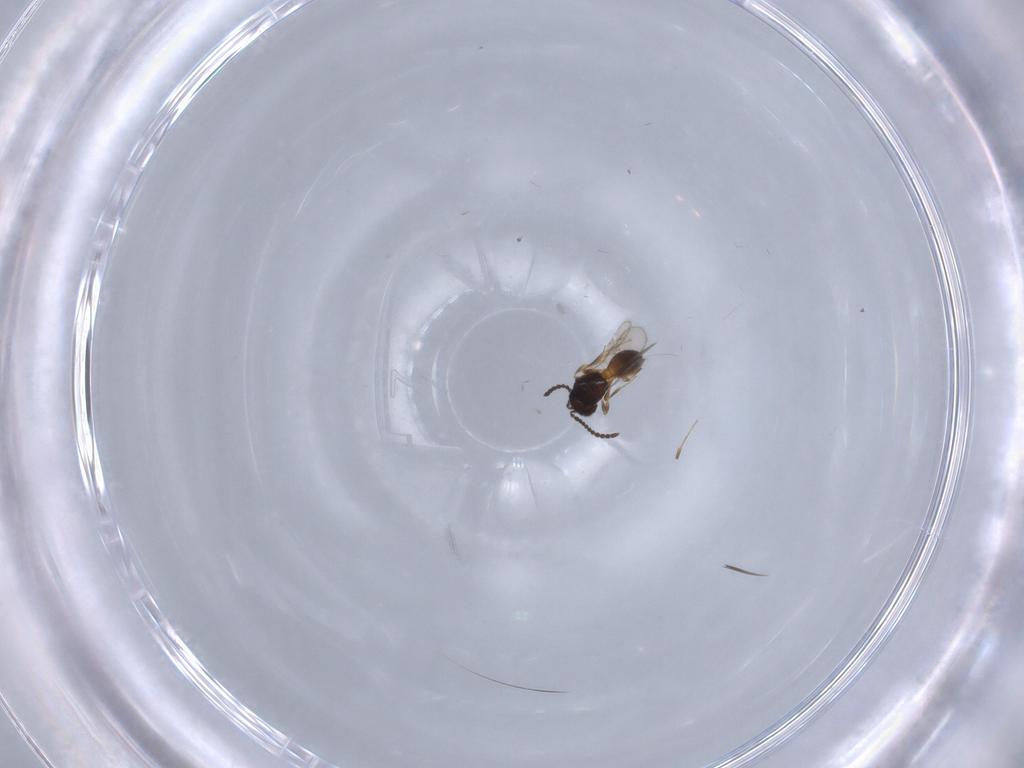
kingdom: Animalia
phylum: Arthropoda
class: Insecta
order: Hymenoptera
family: Scelionidae
